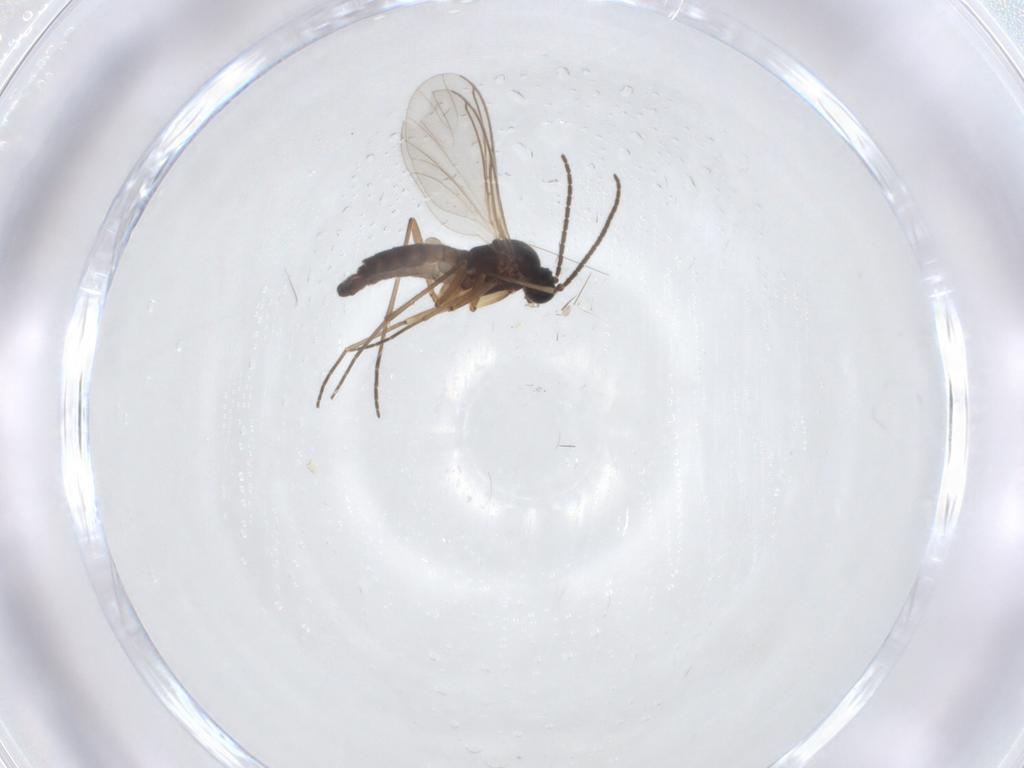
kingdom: Animalia
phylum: Arthropoda
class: Insecta
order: Diptera
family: Sciaridae
